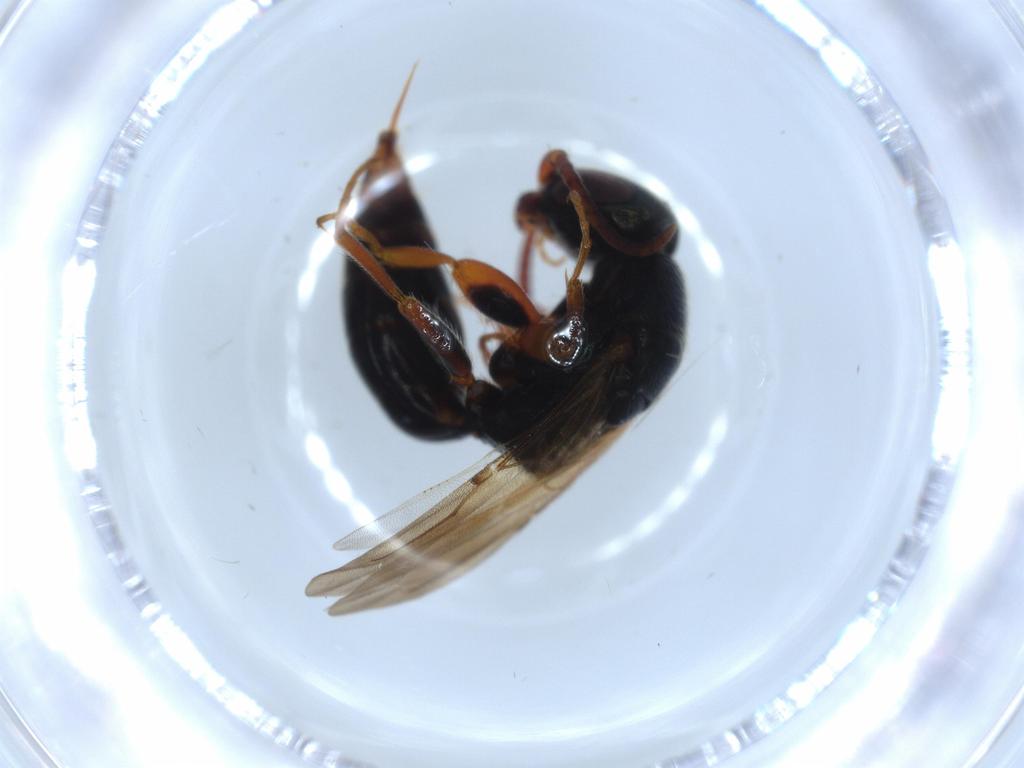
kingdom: Animalia
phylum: Arthropoda
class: Insecta
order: Hymenoptera
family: Bethylidae
